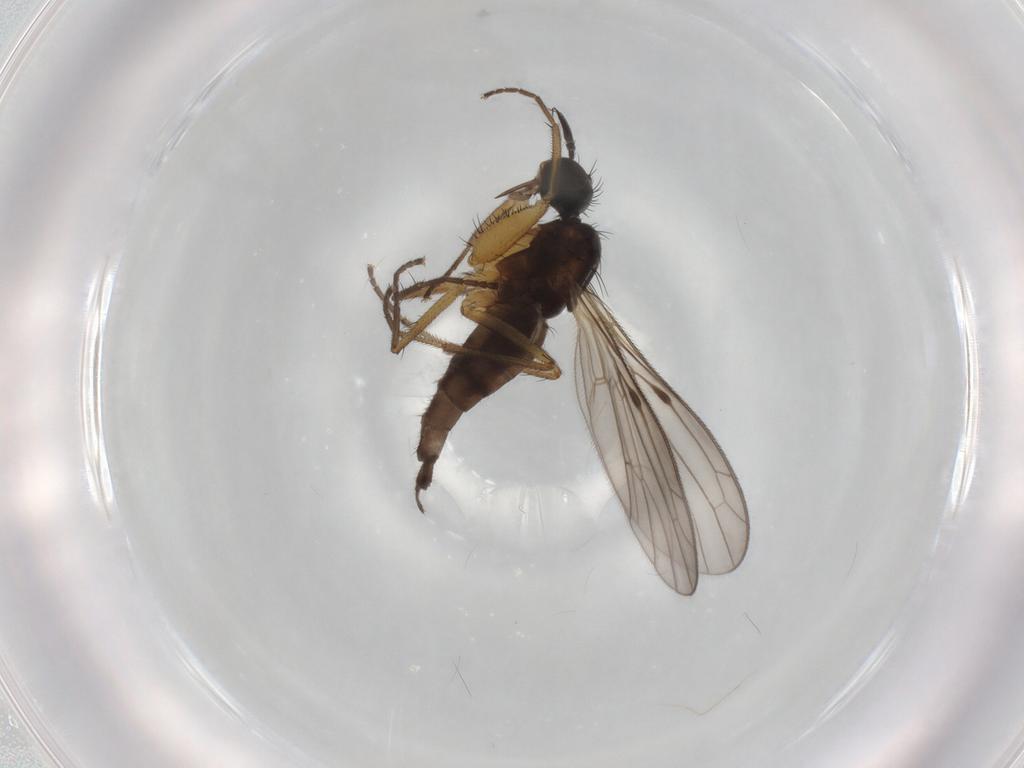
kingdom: Animalia
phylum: Arthropoda
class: Insecta
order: Diptera
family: Chironomidae
